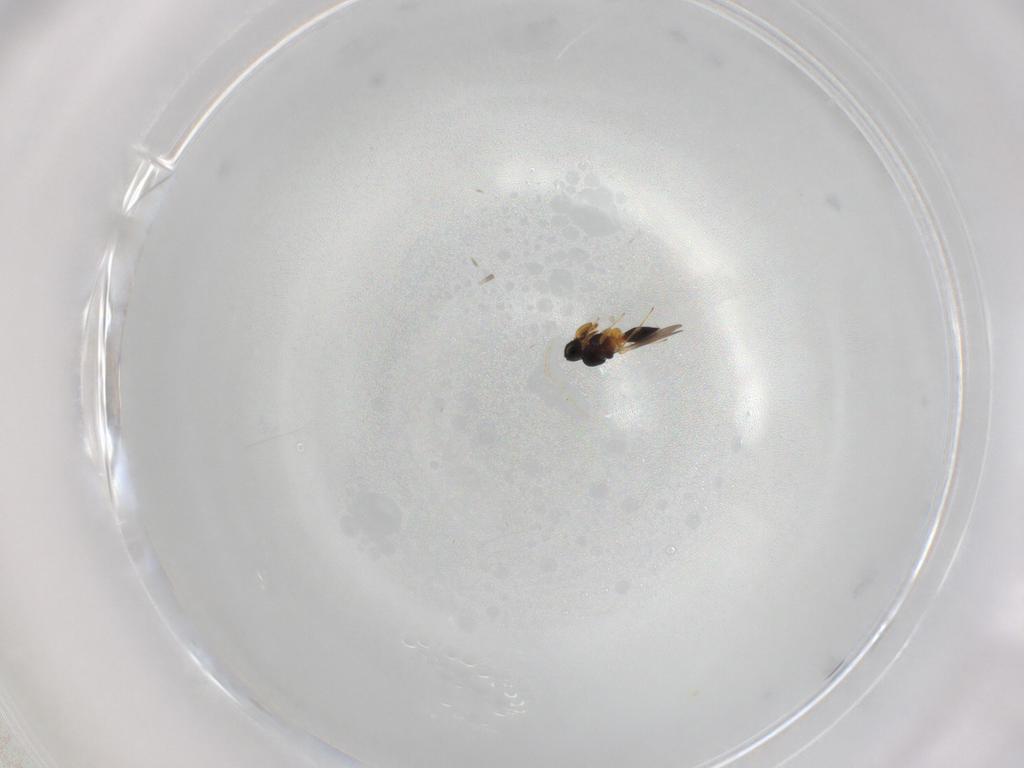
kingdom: Animalia
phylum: Arthropoda
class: Insecta
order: Hymenoptera
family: Platygastridae
